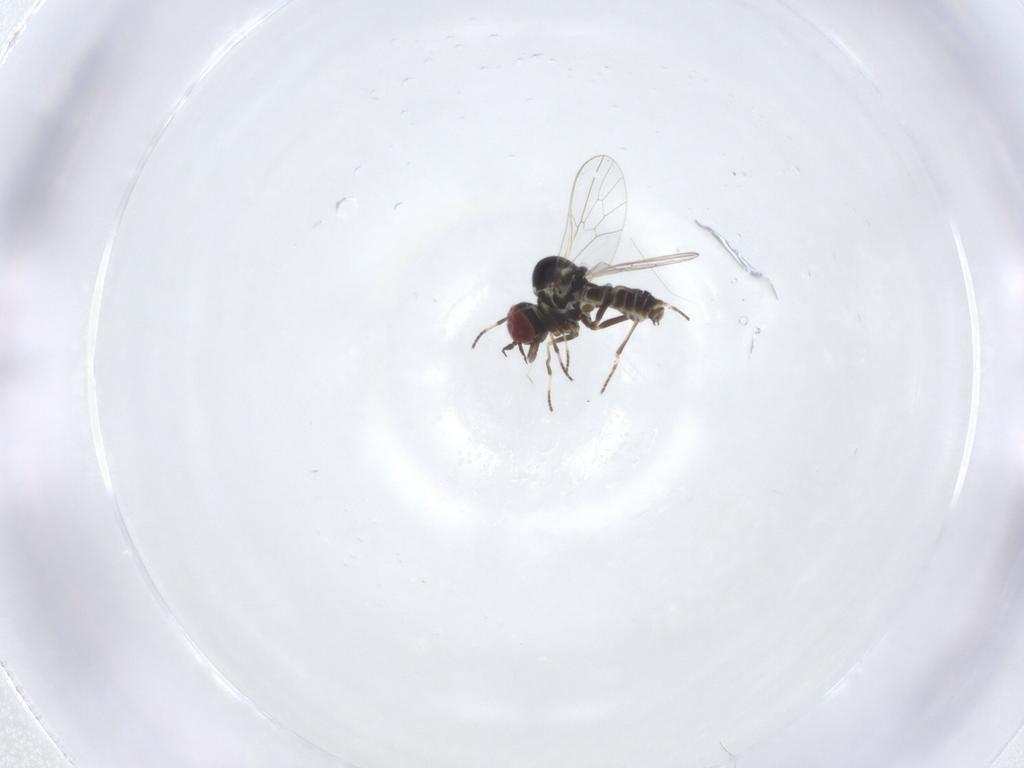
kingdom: Animalia
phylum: Arthropoda
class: Insecta
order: Diptera
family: Mythicomyiidae
